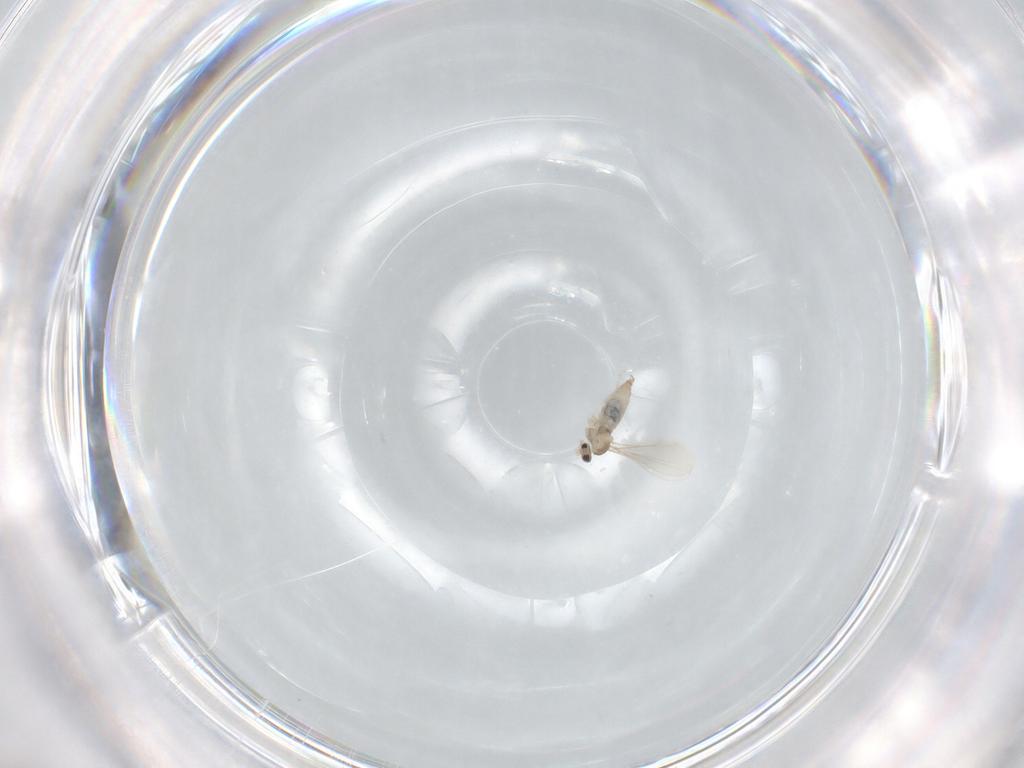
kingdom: Animalia
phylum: Arthropoda
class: Insecta
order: Diptera
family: Cecidomyiidae
